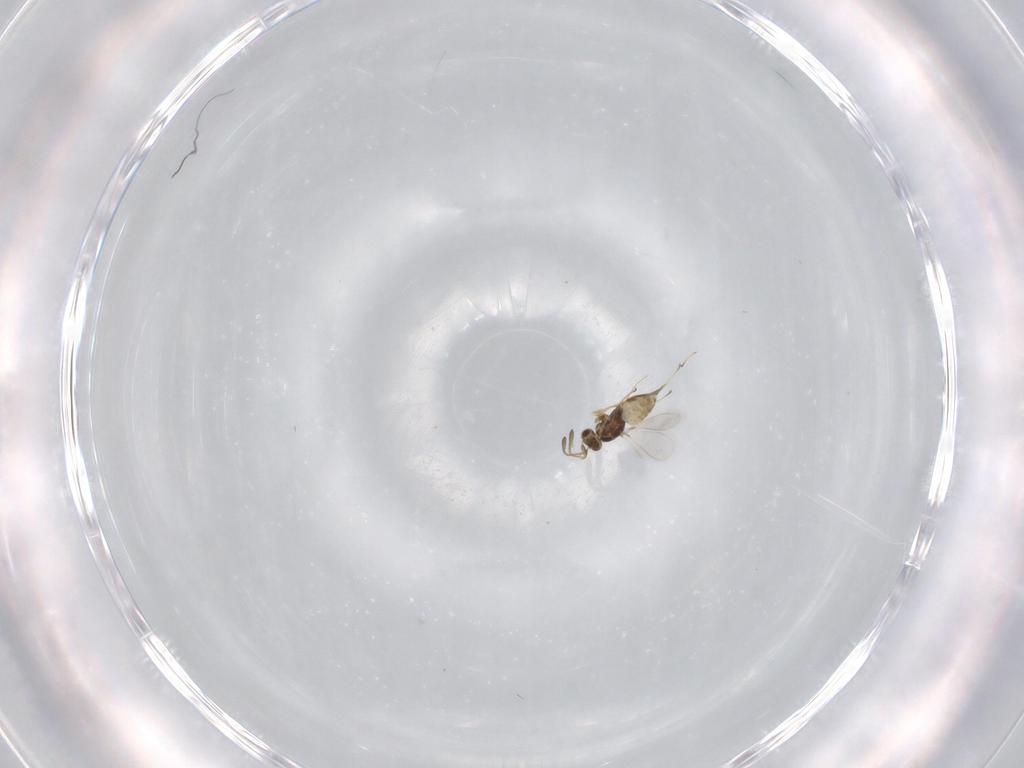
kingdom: Animalia
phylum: Arthropoda
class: Insecta
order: Hymenoptera
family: Mymaridae
